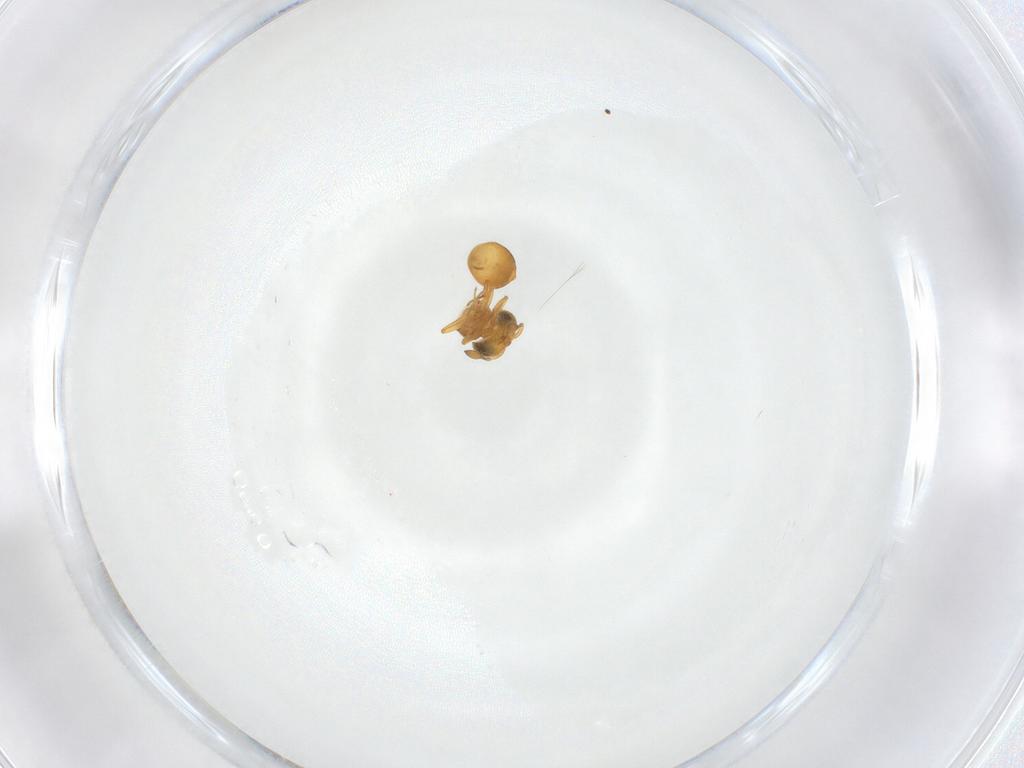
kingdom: Animalia
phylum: Arthropoda
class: Insecta
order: Hymenoptera
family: Scelionidae
